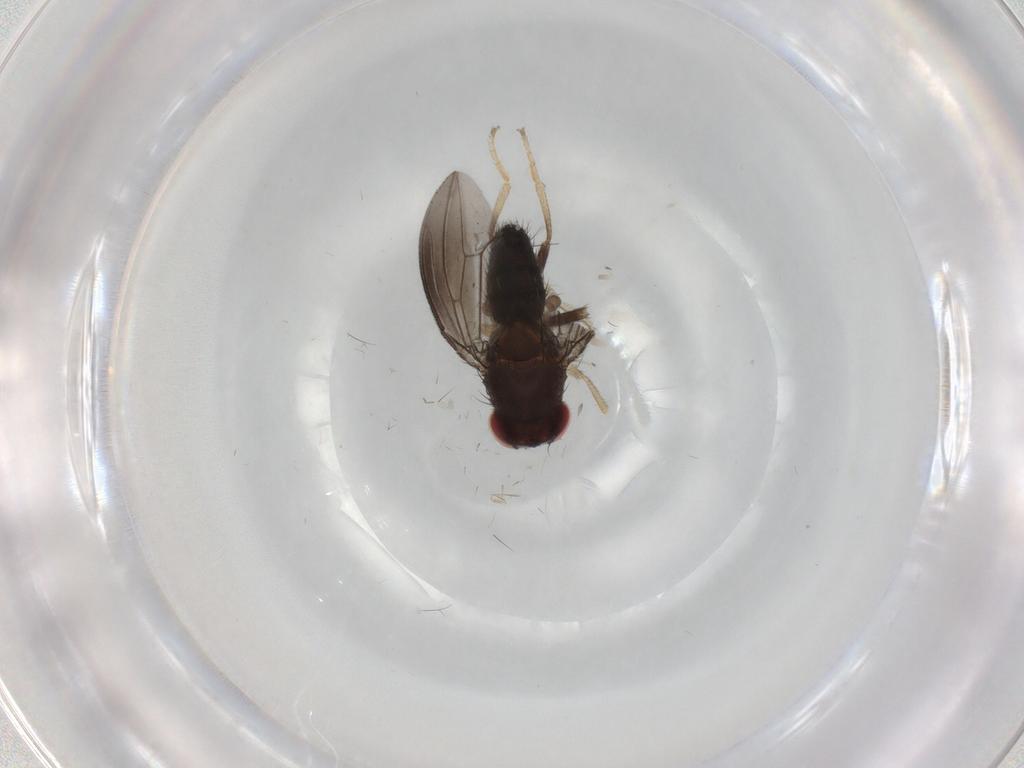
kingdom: Animalia
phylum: Arthropoda
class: Insecta
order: Diptera
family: Drosophilidae
